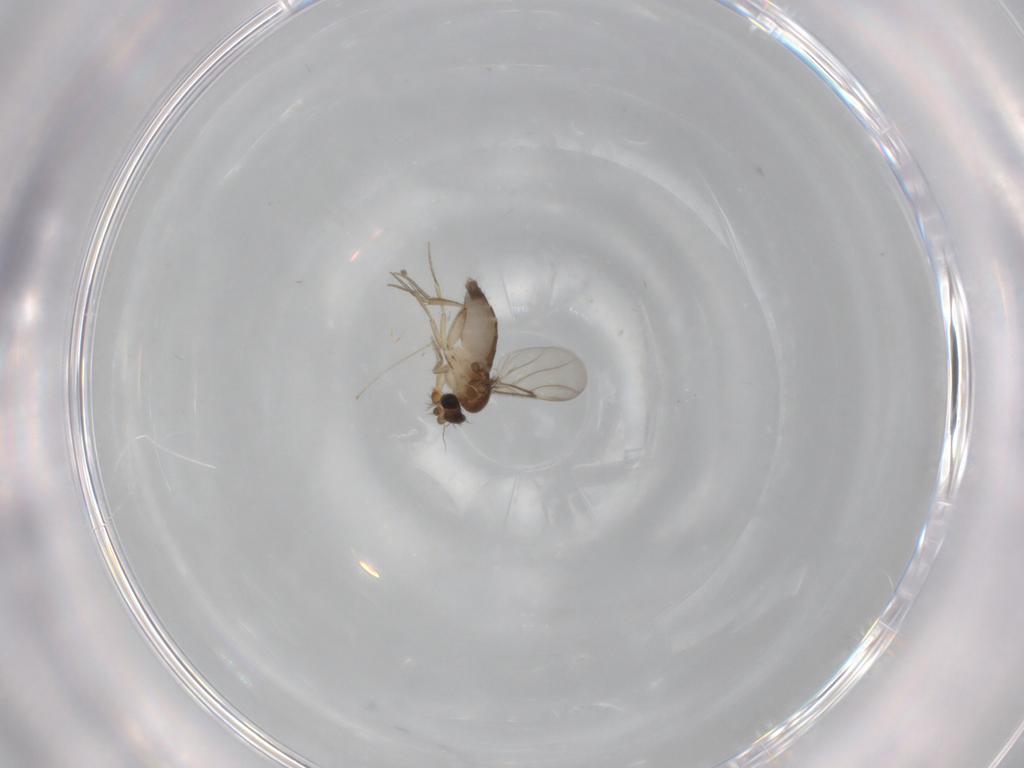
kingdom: Animalia
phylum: Arthropoda
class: Insecta
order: Diptera
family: Phoridae
